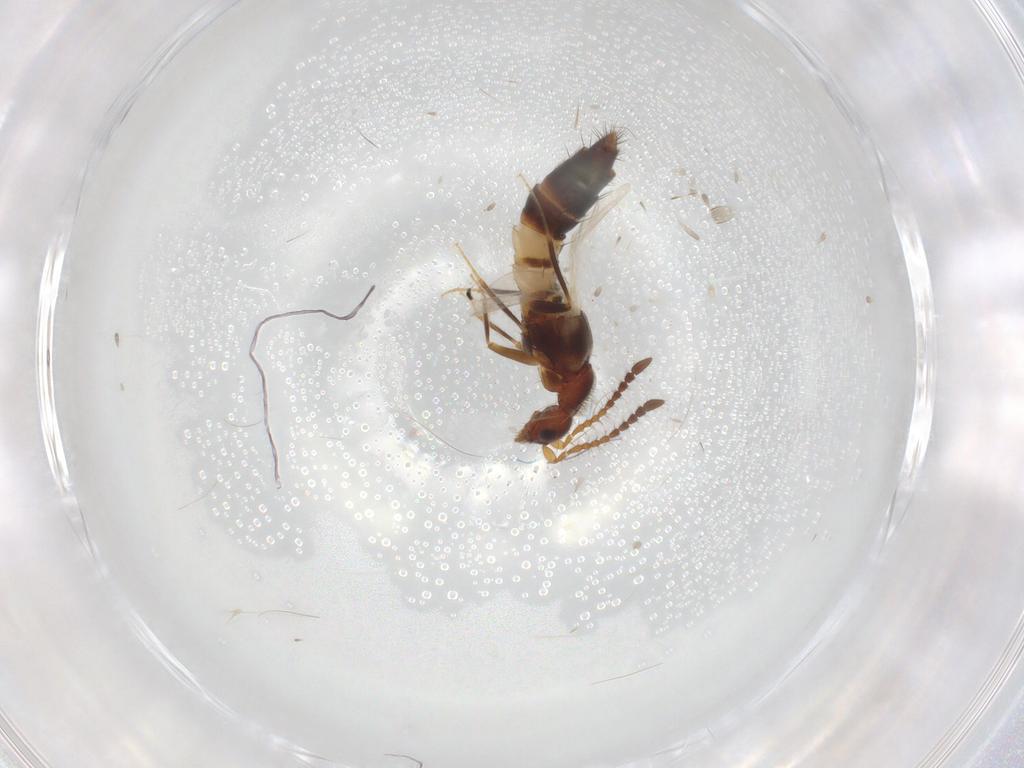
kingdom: Animalia
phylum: Arthropoda
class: Insecta
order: Coleoptera
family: Staphylinidae
